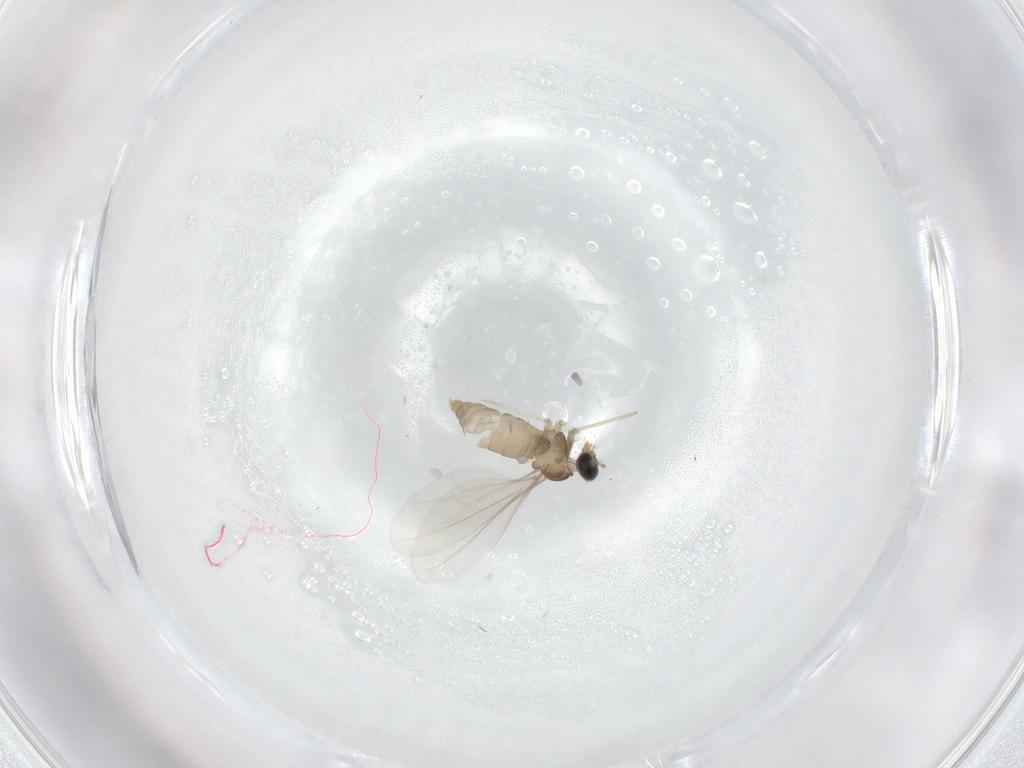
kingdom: Animalia
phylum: Arthropoda
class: Insecta
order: Diptera
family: Cecidomyiidae
